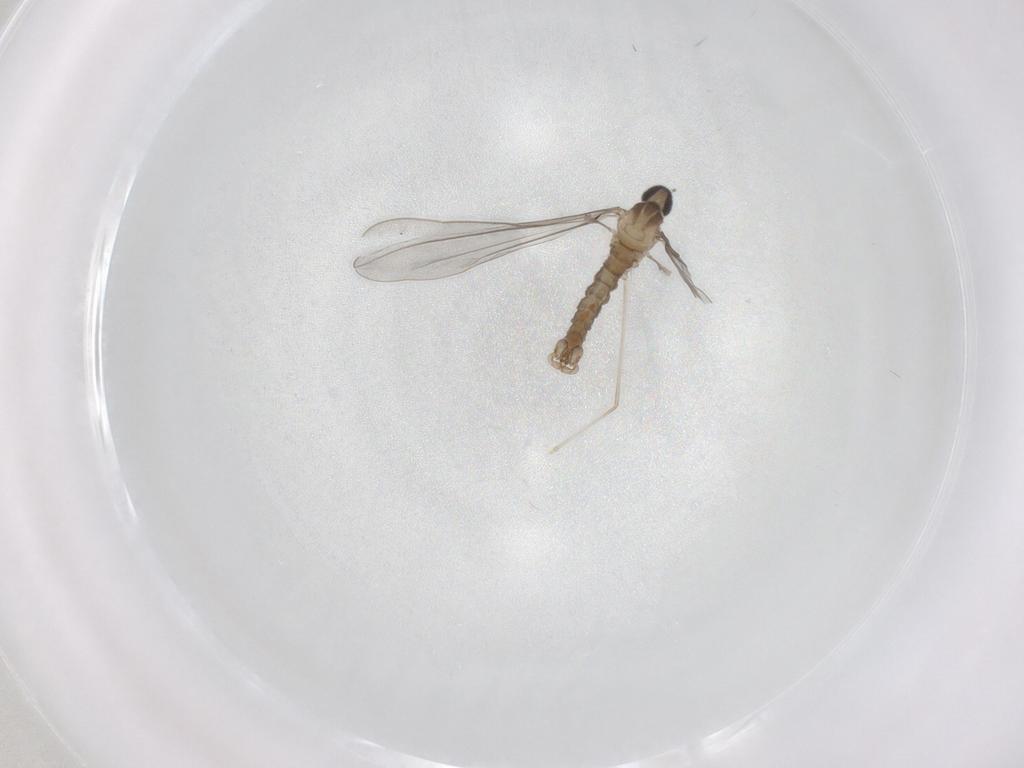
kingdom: Animalia
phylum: Arthropoda
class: Insecta
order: Diptera
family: Cecidomyiidae
